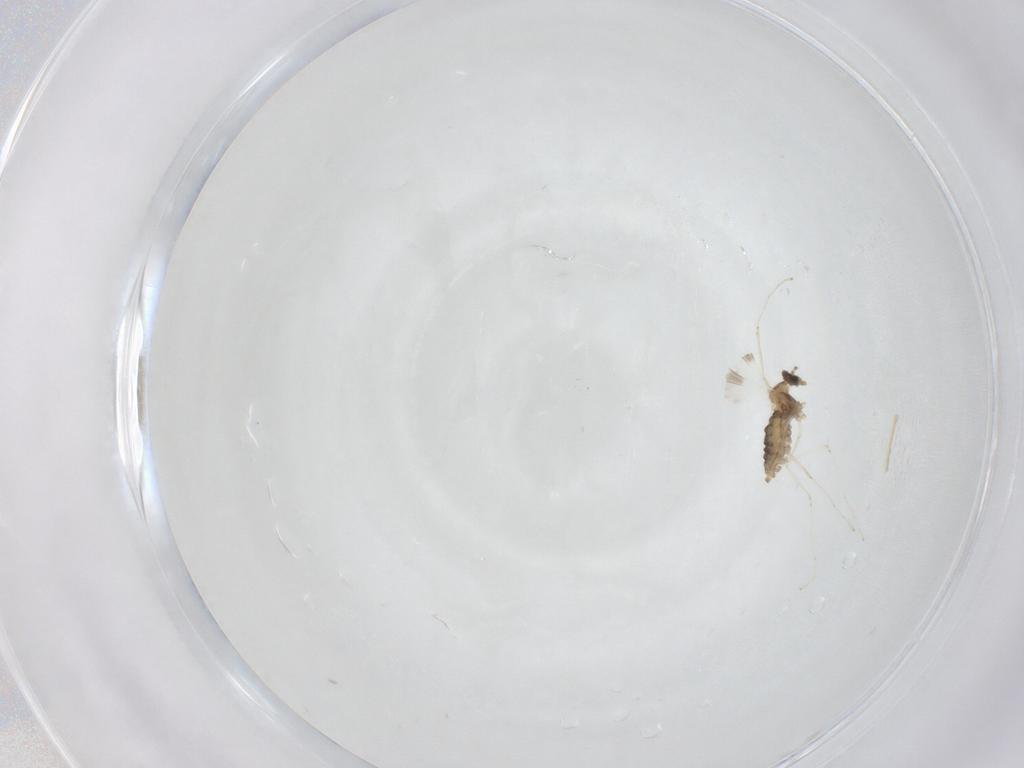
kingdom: Animalia
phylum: Arthropoda
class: Insecta
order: Diptera
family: Cecidomyiidae
